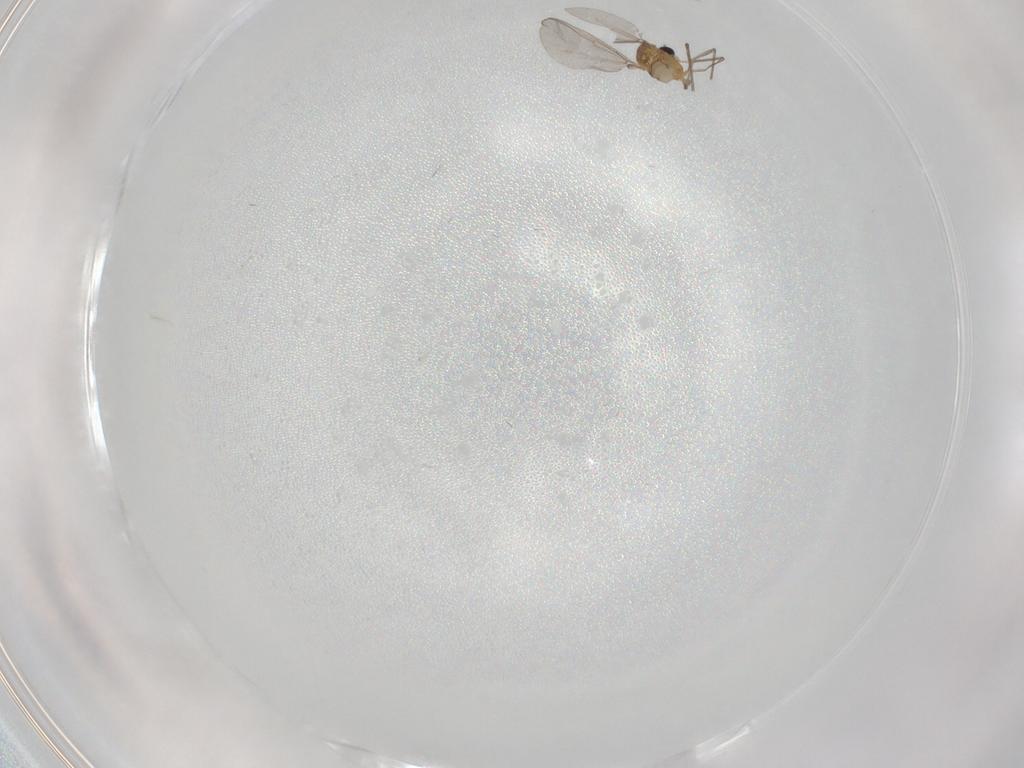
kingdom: Animalia
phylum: Arthropoda
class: Insecta
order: Diptera
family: Chironomidae
